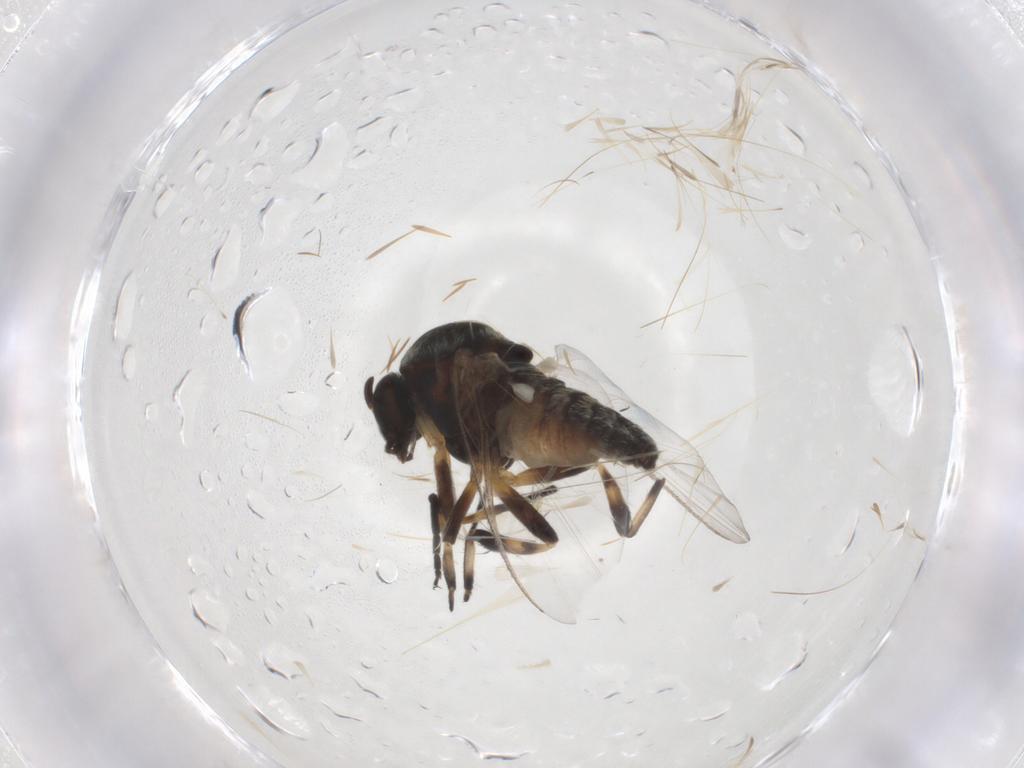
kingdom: Animalia
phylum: Arthropoda
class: Insecta
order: Diptera
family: Simuliidae
